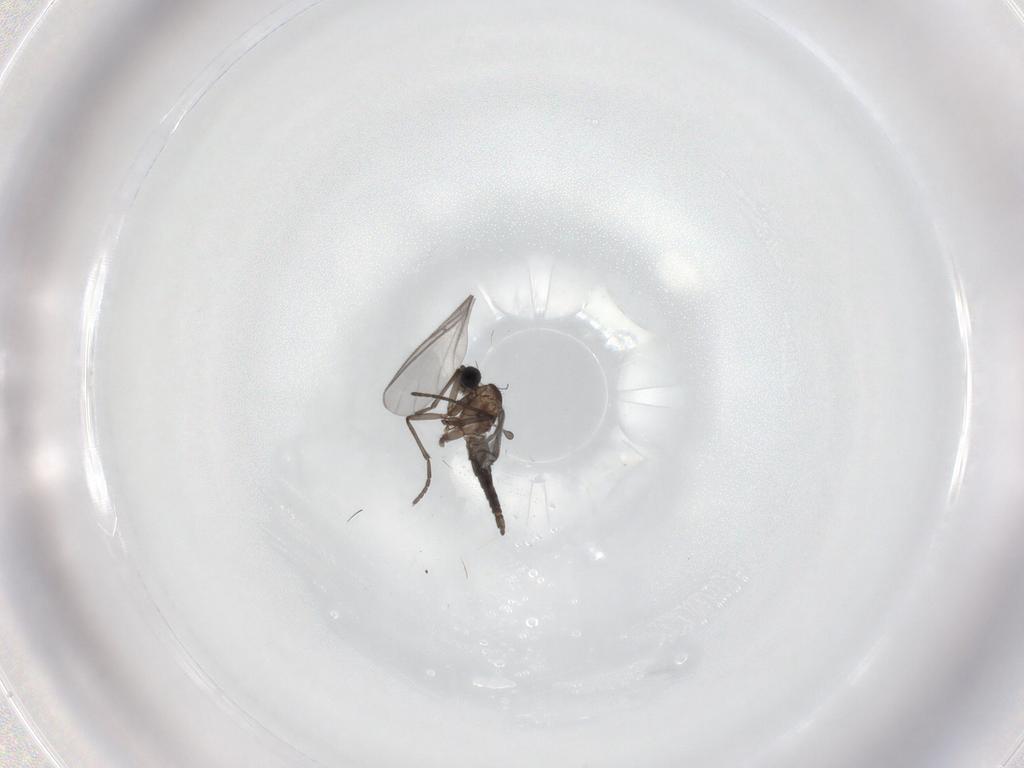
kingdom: Animalia
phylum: Arthropoda
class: Insecta
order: Diptera
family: Sciaridae
